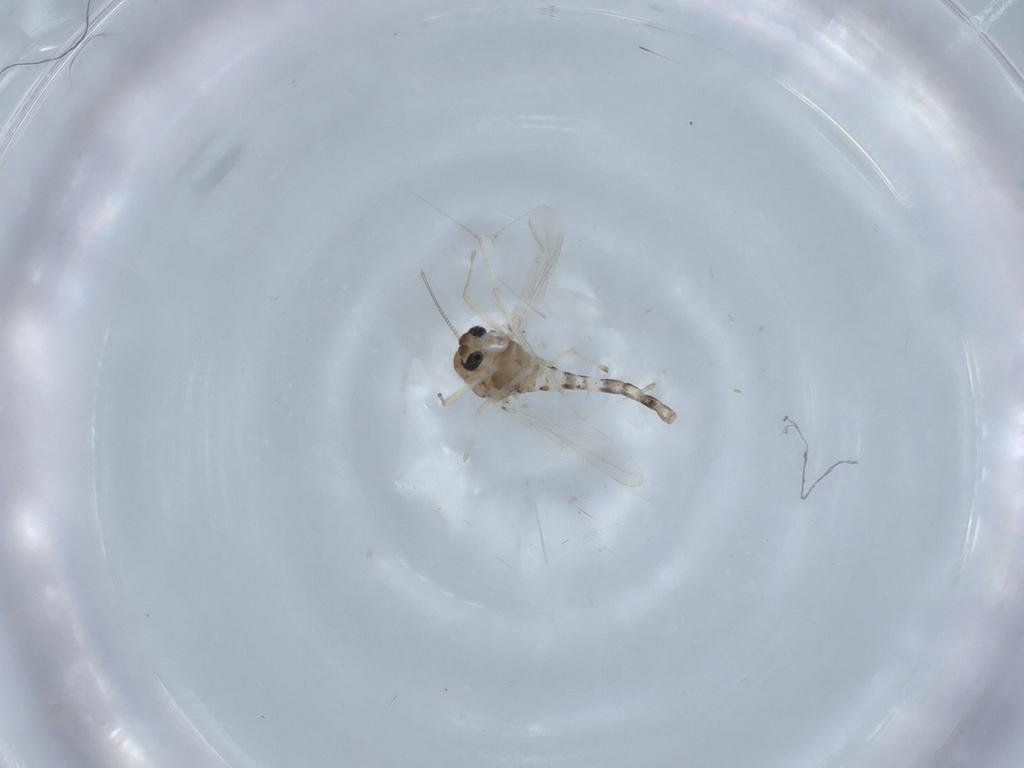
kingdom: Animalia
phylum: Arthropoda
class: Insecta
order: Diptera
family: Chironomidae
